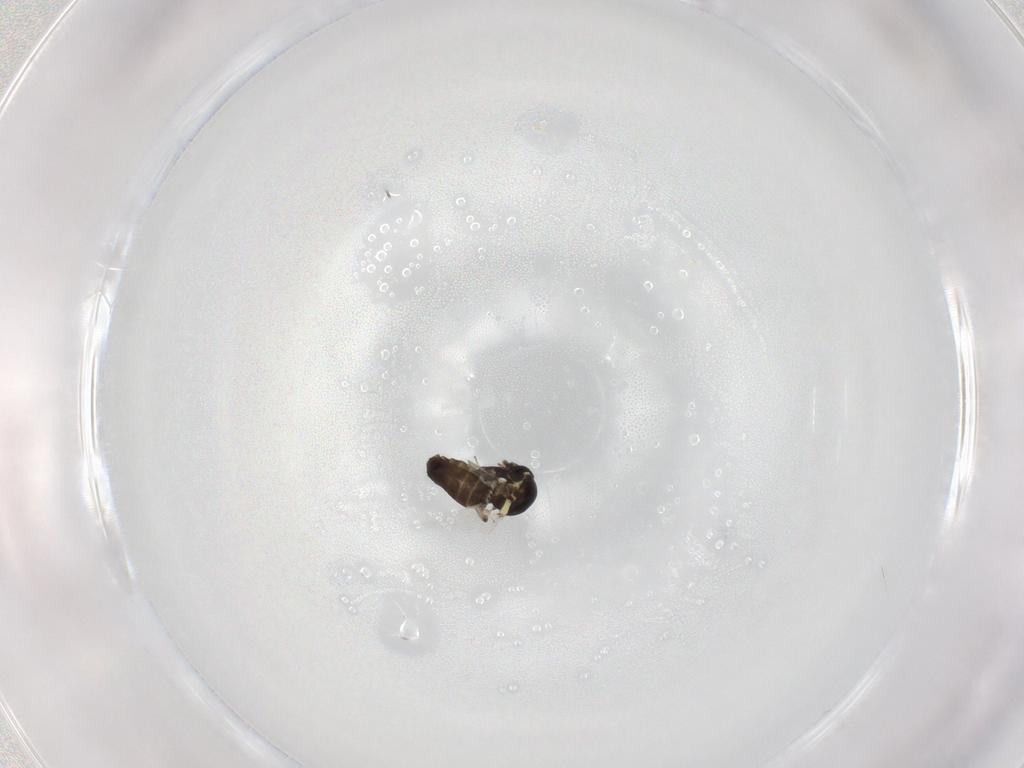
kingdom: Animalia
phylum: Arthropoda
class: Insecta
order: Diptera
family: Ceratopogonidae
